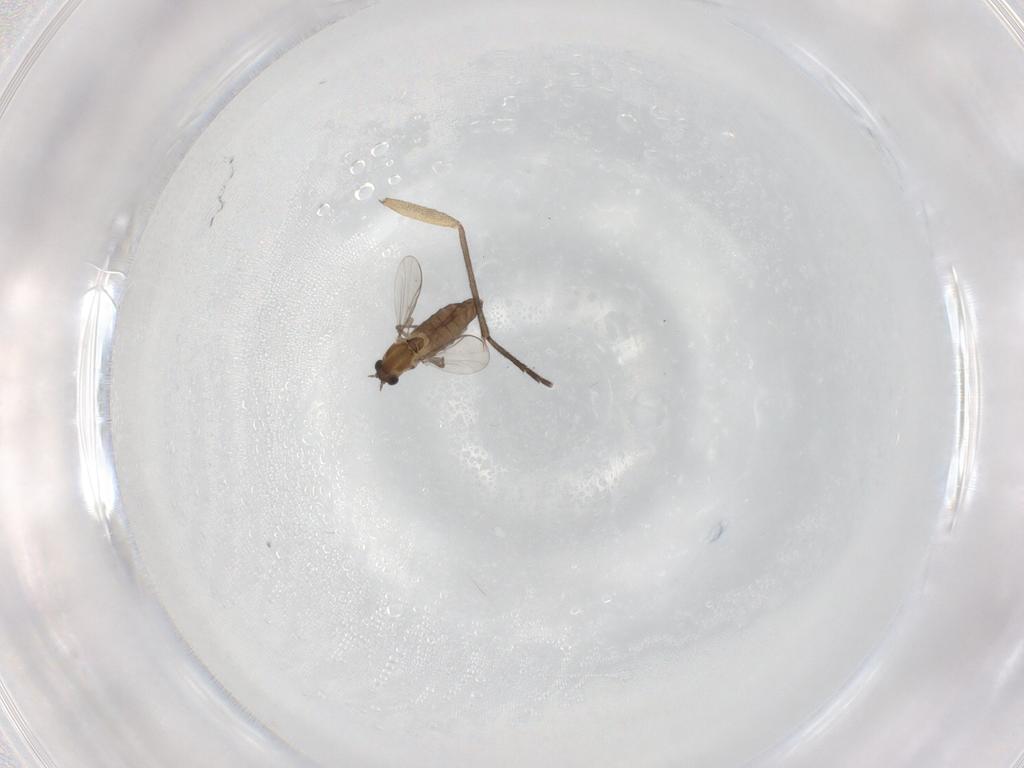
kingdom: Animalia
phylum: Arthropoda
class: Insecta
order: Diptera
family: Chironomidae
